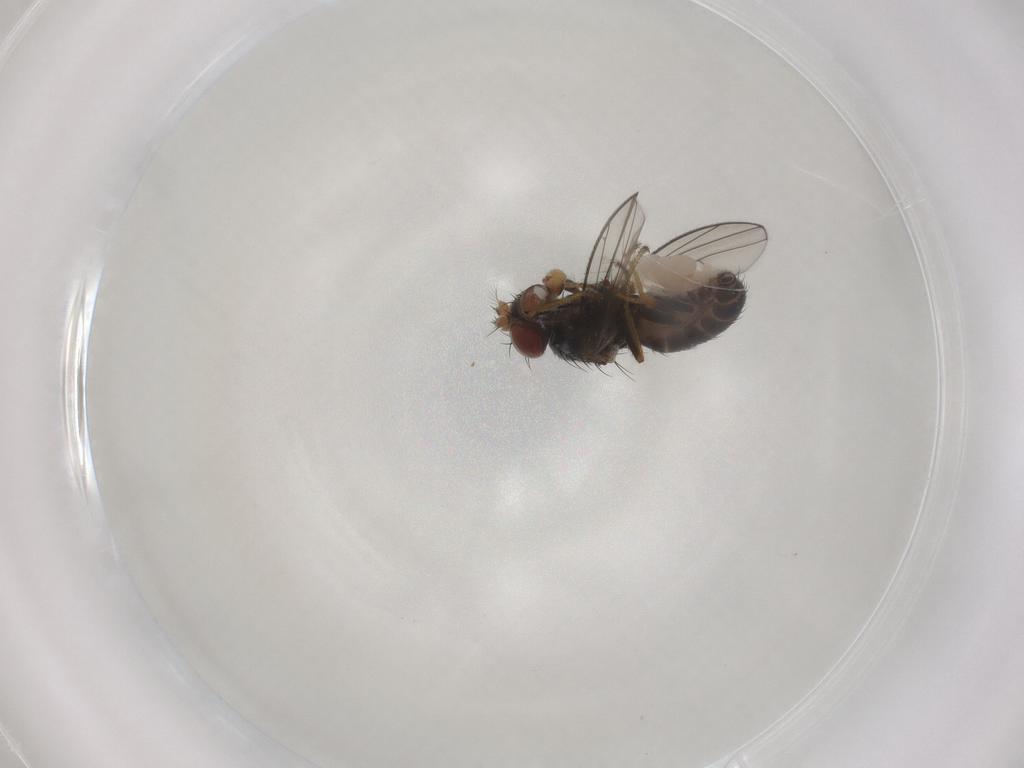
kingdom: Animalia
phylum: Arthropoda
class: Insecta
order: Diptera
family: Ephydridae
